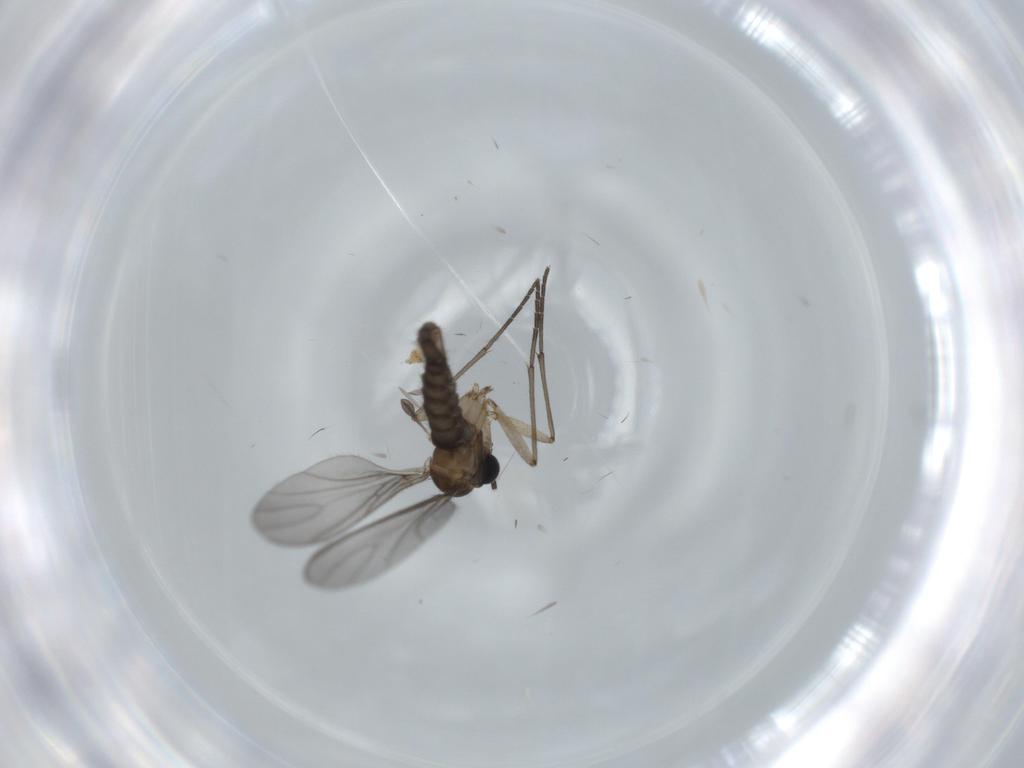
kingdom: Animalia
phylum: Arthropoda
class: Insecta
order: Diptera
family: Sciaridae
